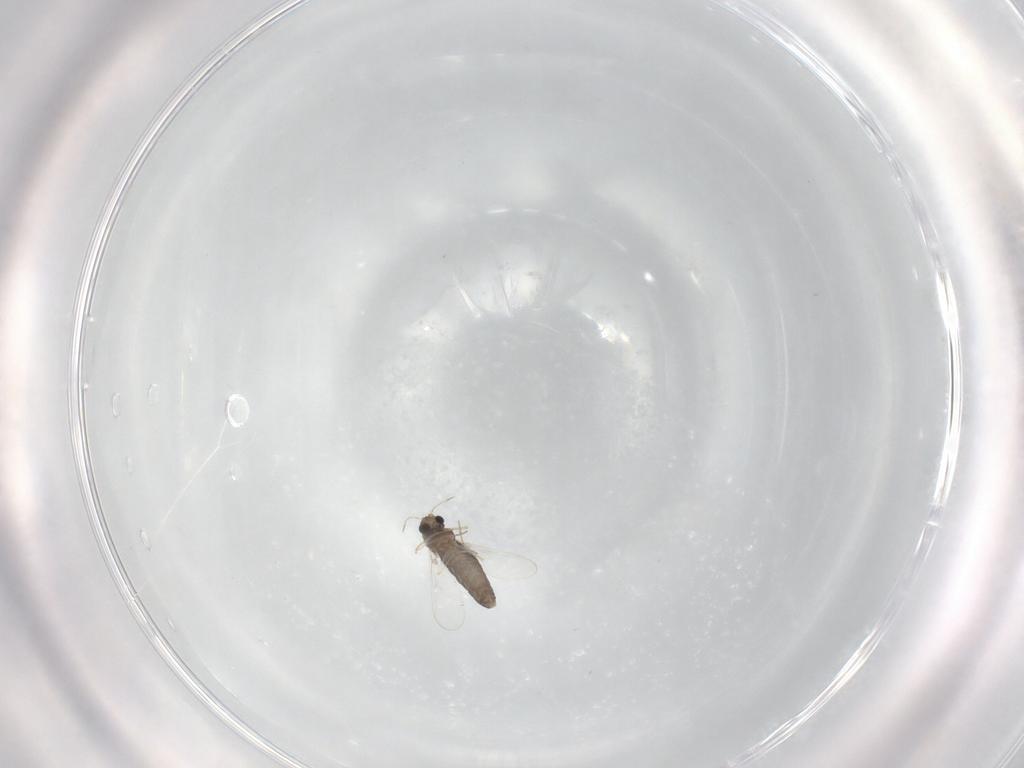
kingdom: Animalia
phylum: Arthropoda
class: Insecta
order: Diptera
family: Chironomidae
